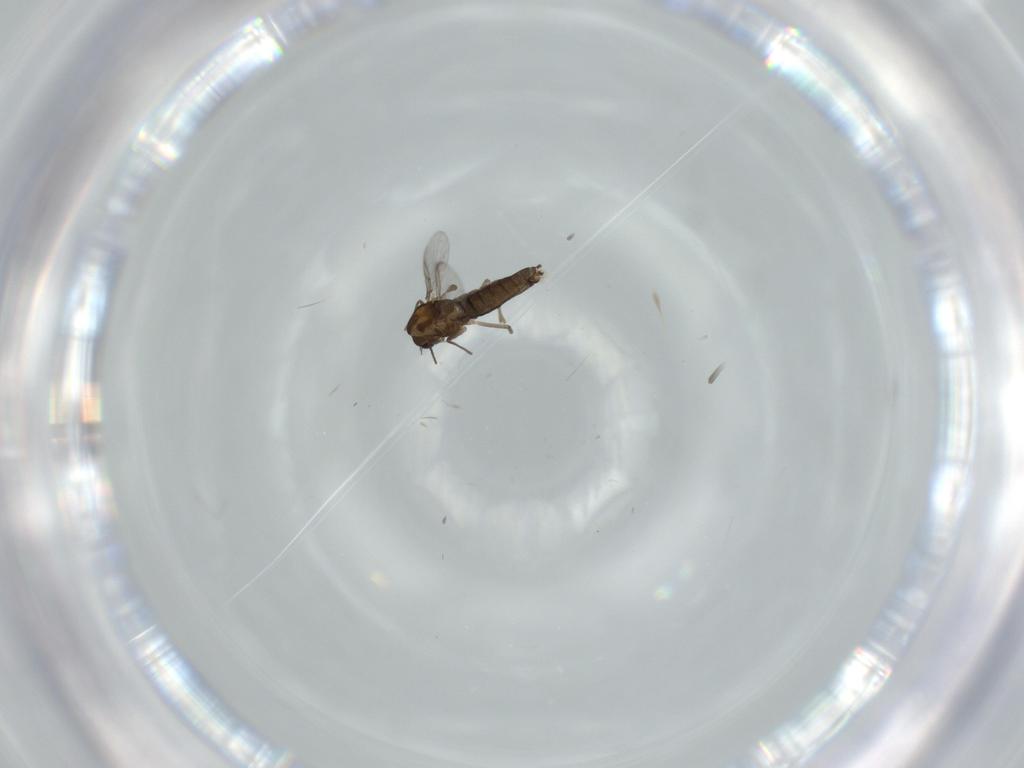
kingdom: Animalia
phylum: Arthropoda
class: Insecta
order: Diptera
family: Chironomidae
